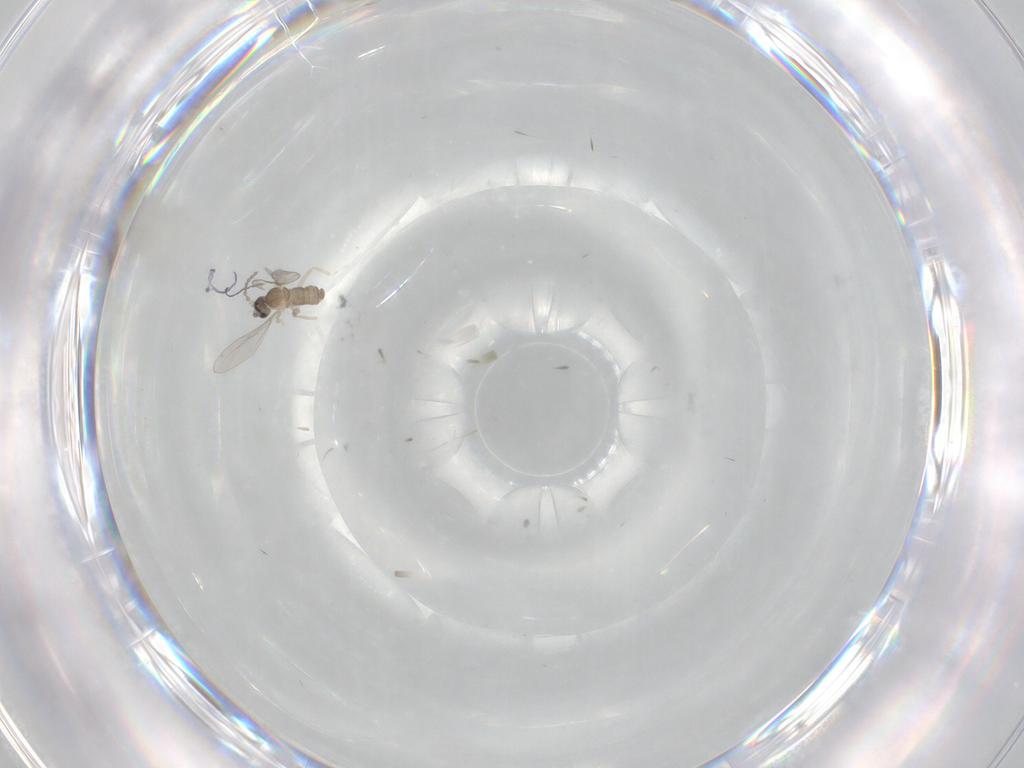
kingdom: Animalia
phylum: Arthropoda
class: Insecta
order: Diptera
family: Cecidomyiidae
